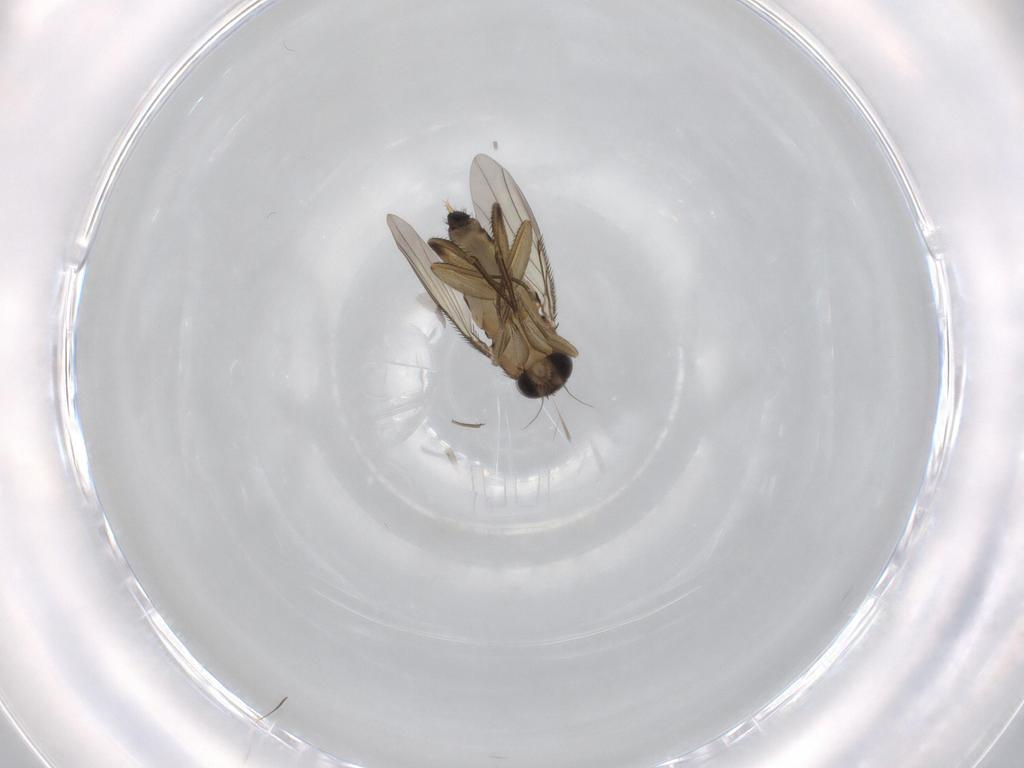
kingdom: Animalia
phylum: Arthropoda
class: Insecta
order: Diptera
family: Phoridae
